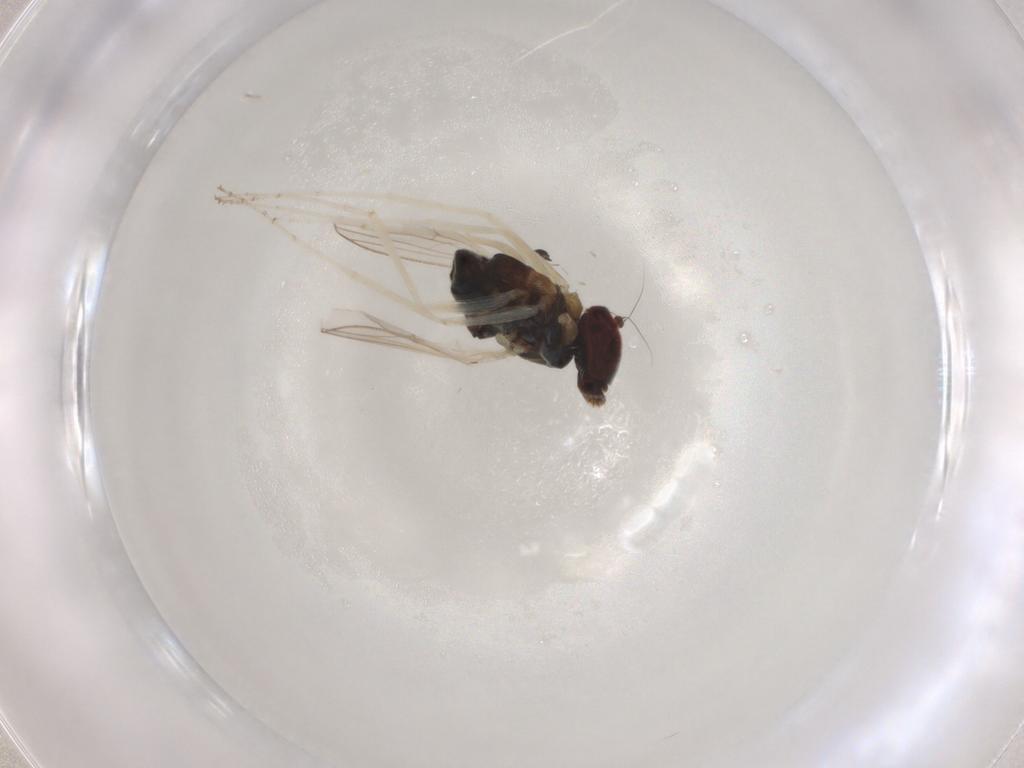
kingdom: Animalia
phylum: Arthropoda
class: Insecta
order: Diptera
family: Dolichopodidae
